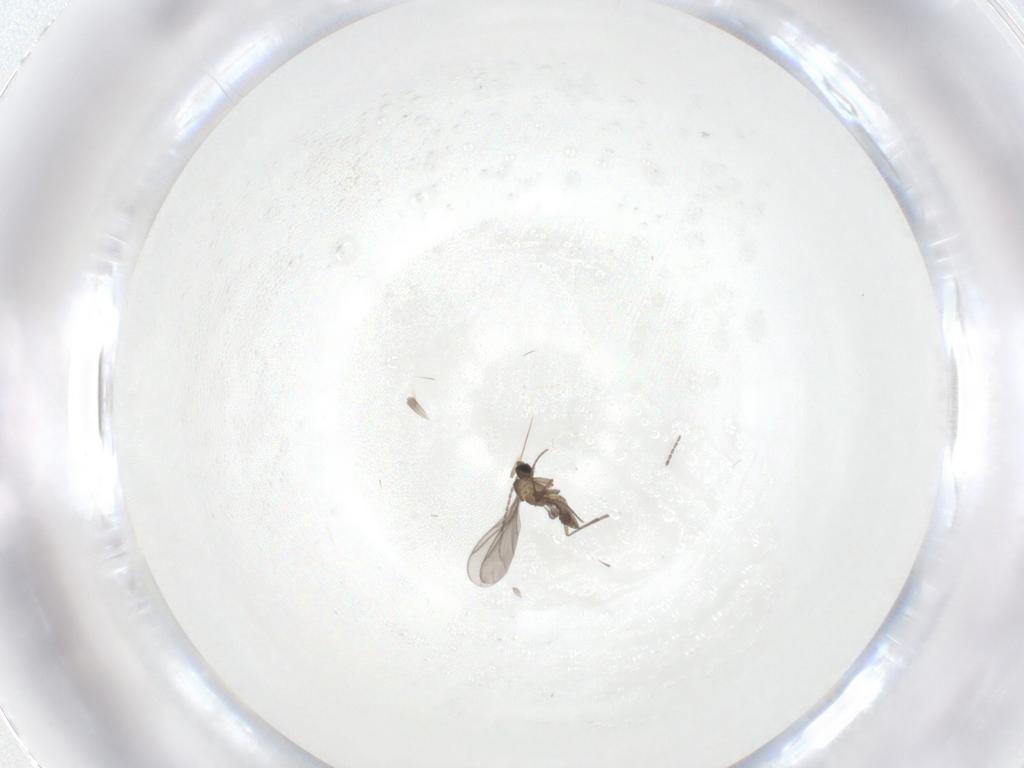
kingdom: Animalia
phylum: Arthropoda
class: Insecta
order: Diptera
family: Sciaridae
